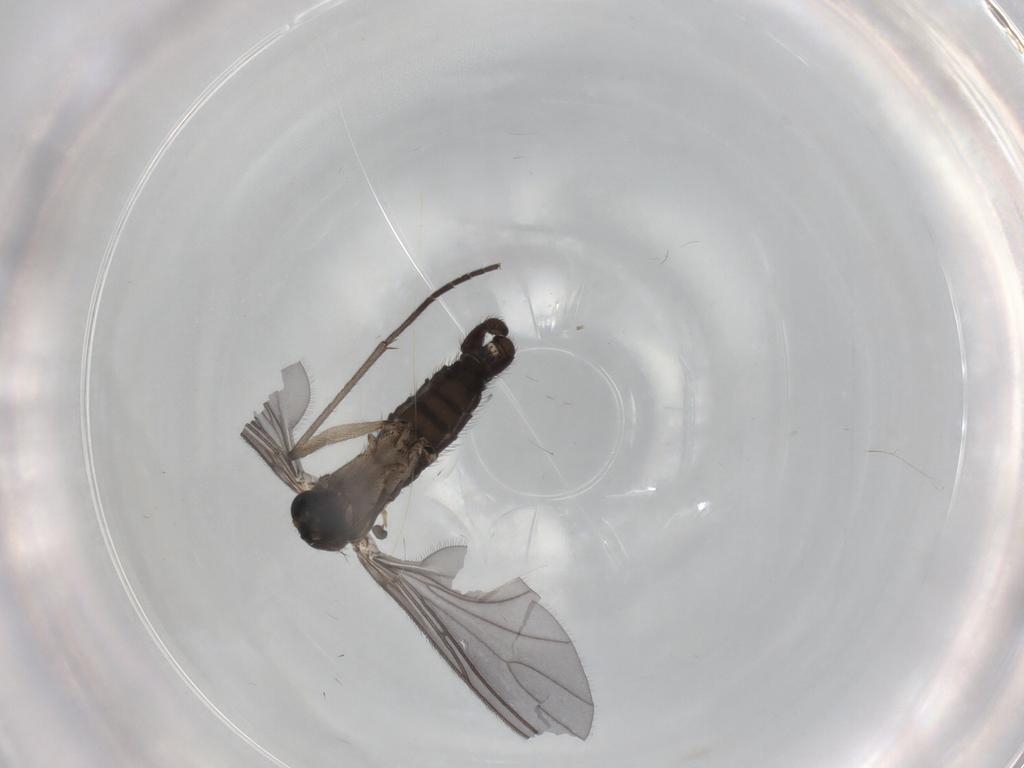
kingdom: Animalia
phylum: Arthropoda
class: Insecta
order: Diptera
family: Sciaridae
